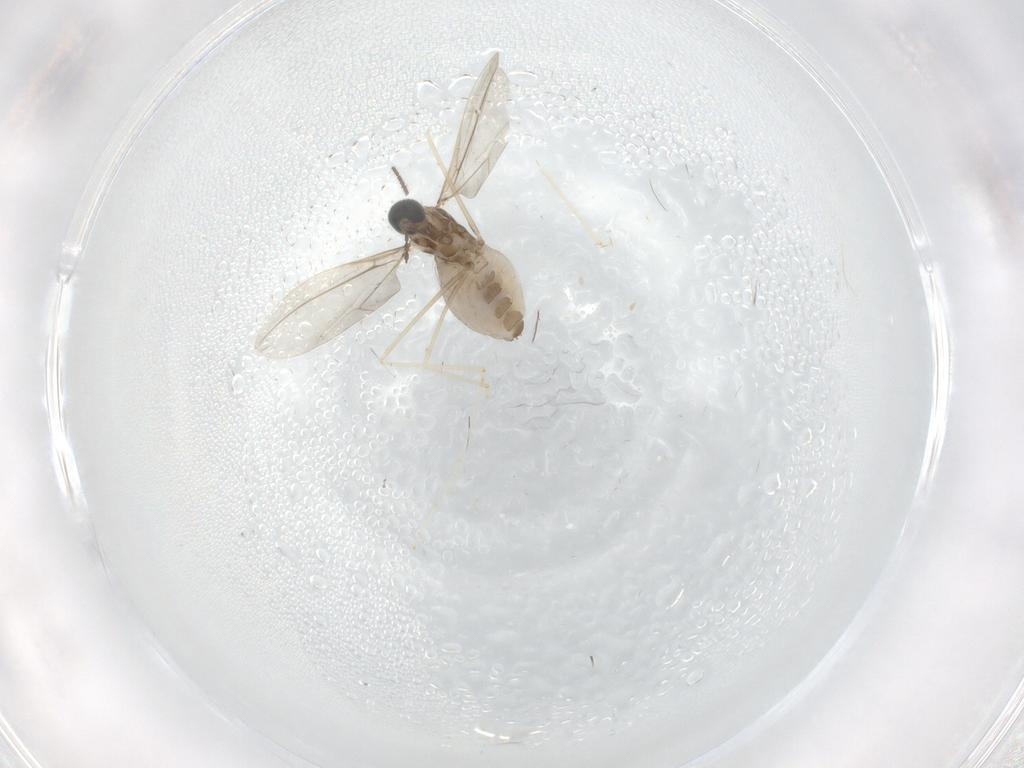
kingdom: Animalia
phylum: Arthropoda
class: Insecta
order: Diptera
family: Cecidomyiidae
